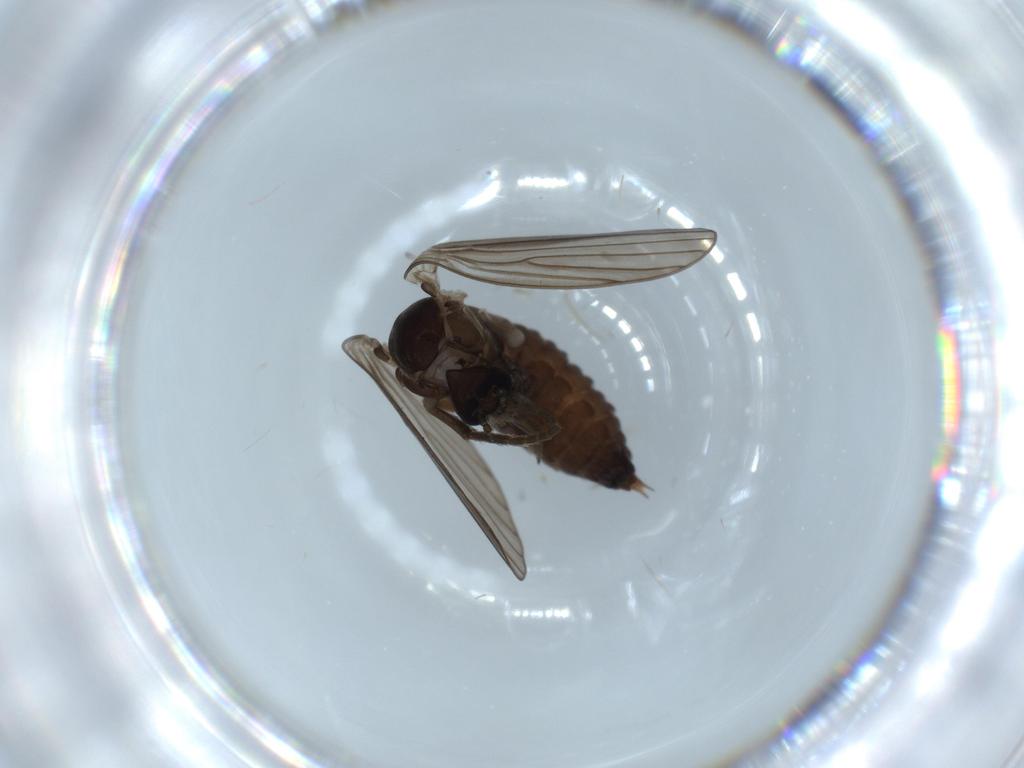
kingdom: Animalia
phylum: Arthropoda
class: Insecta
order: Diptera
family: Psychodidae
